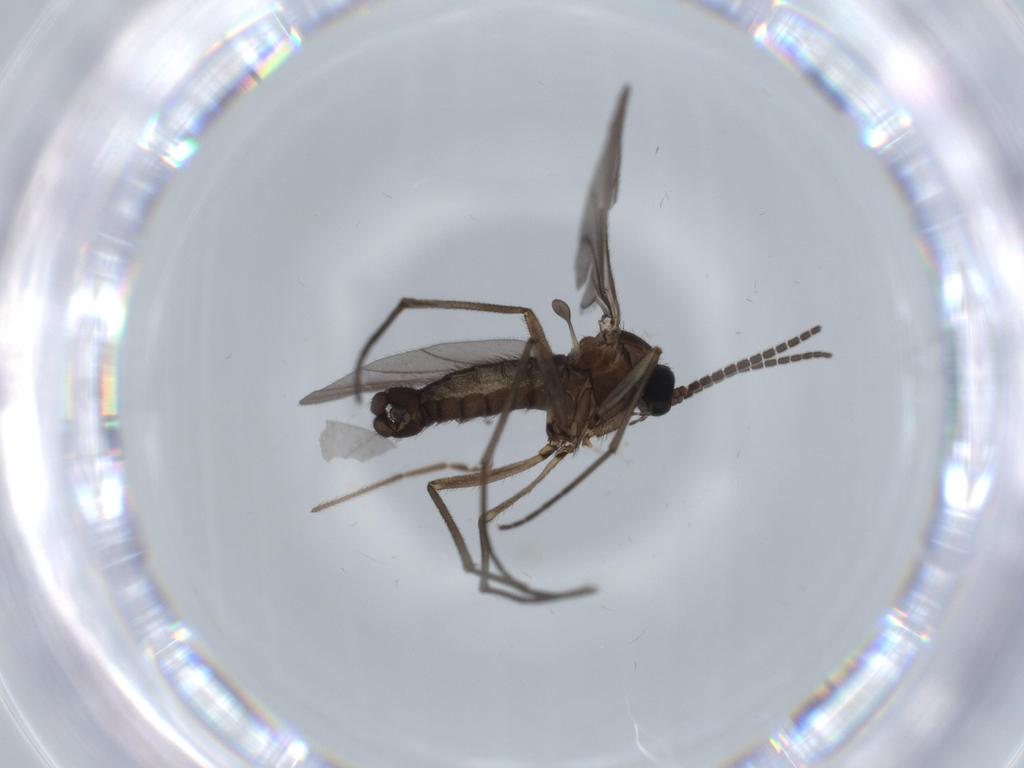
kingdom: Animalia
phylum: Arthropoda
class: Insecta
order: Diptera
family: Sciaridae
